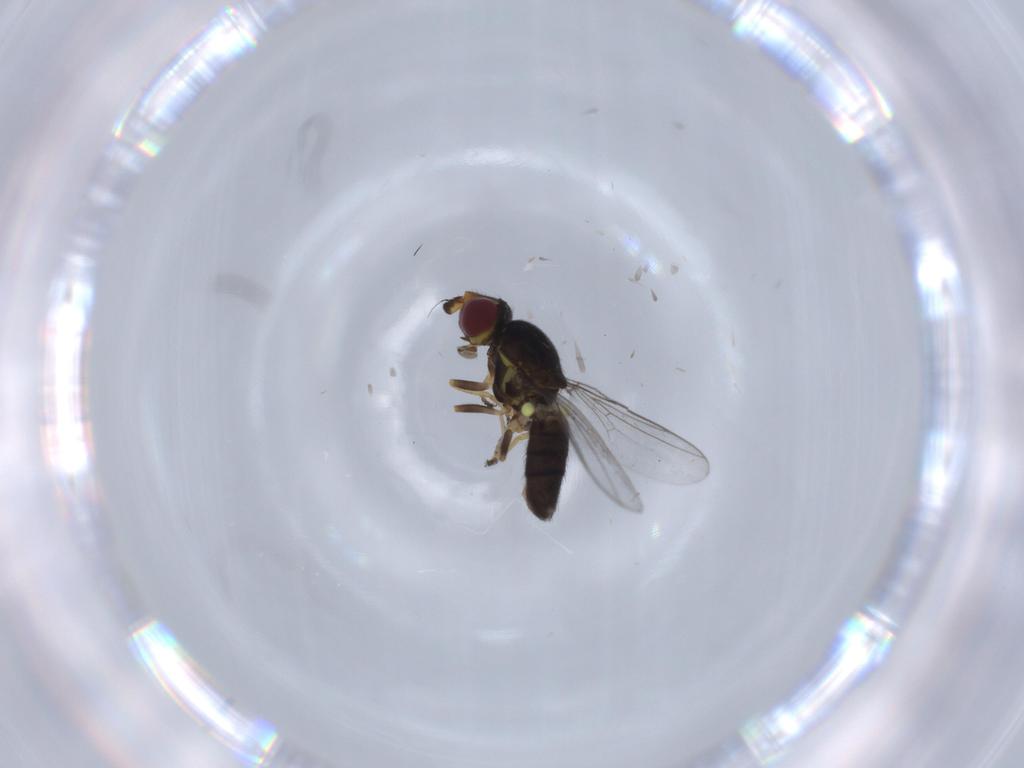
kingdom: Animalia
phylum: Arthropoda
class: Insecta
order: Diptera
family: Chloropidae
